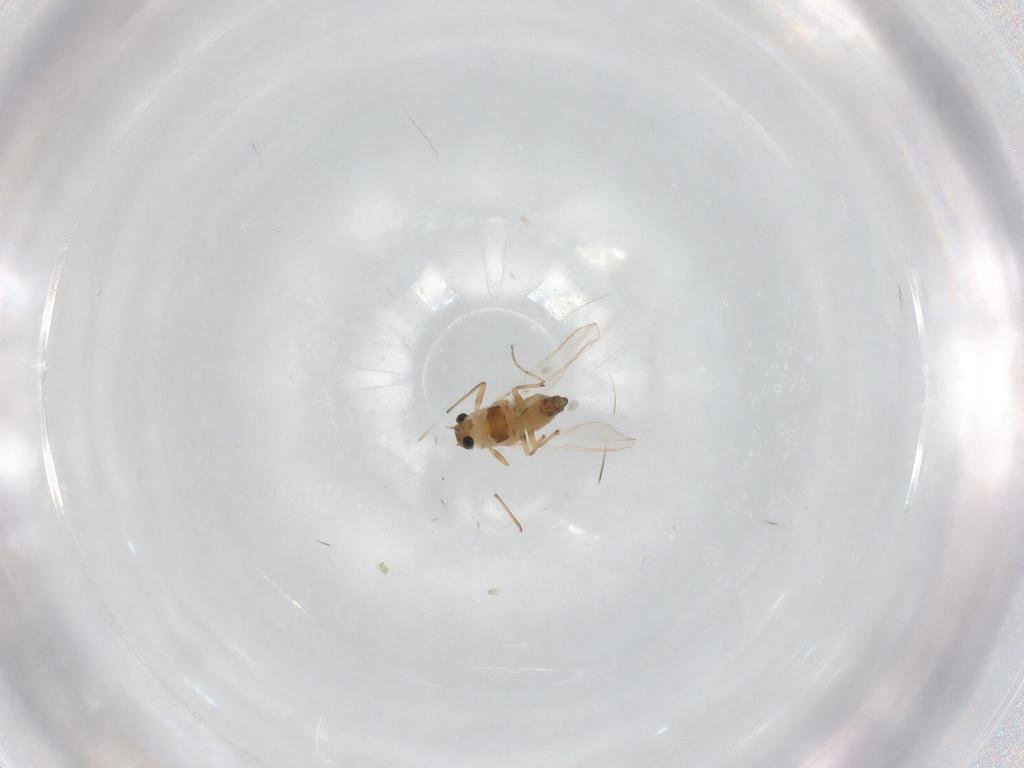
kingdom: Animalia
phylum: Arthropoda
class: Insecta
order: Diptera
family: Chironomidae
